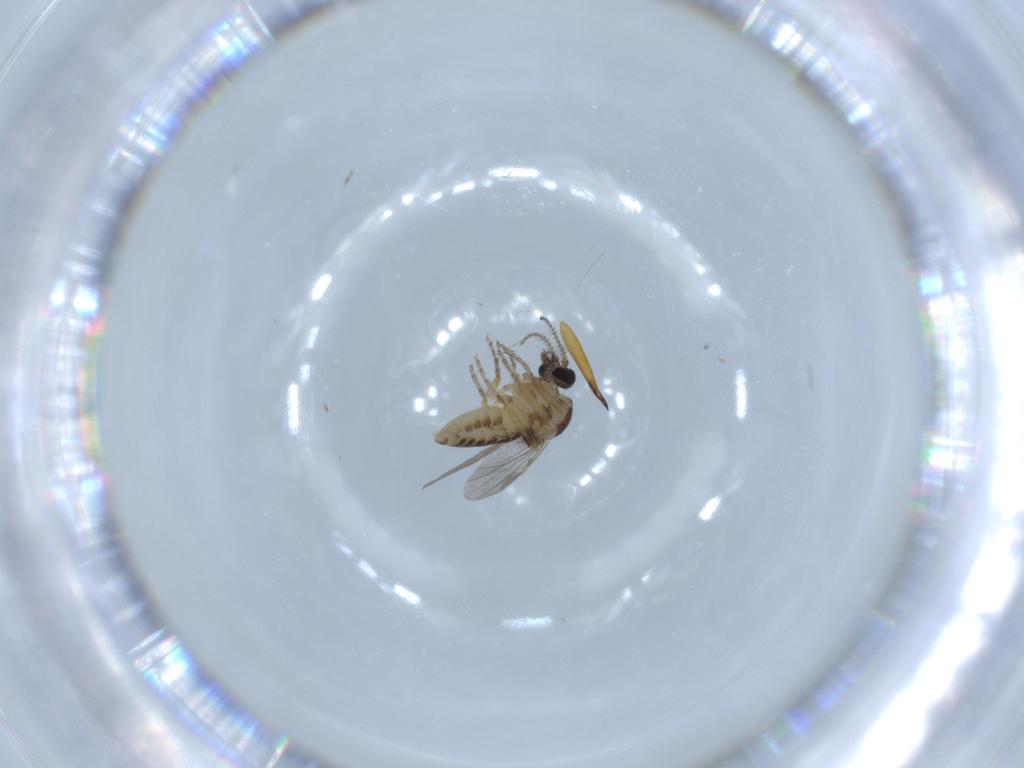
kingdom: Animalia
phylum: Arthropoda
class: Insecta
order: Diptera
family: Ceratopogonidae
